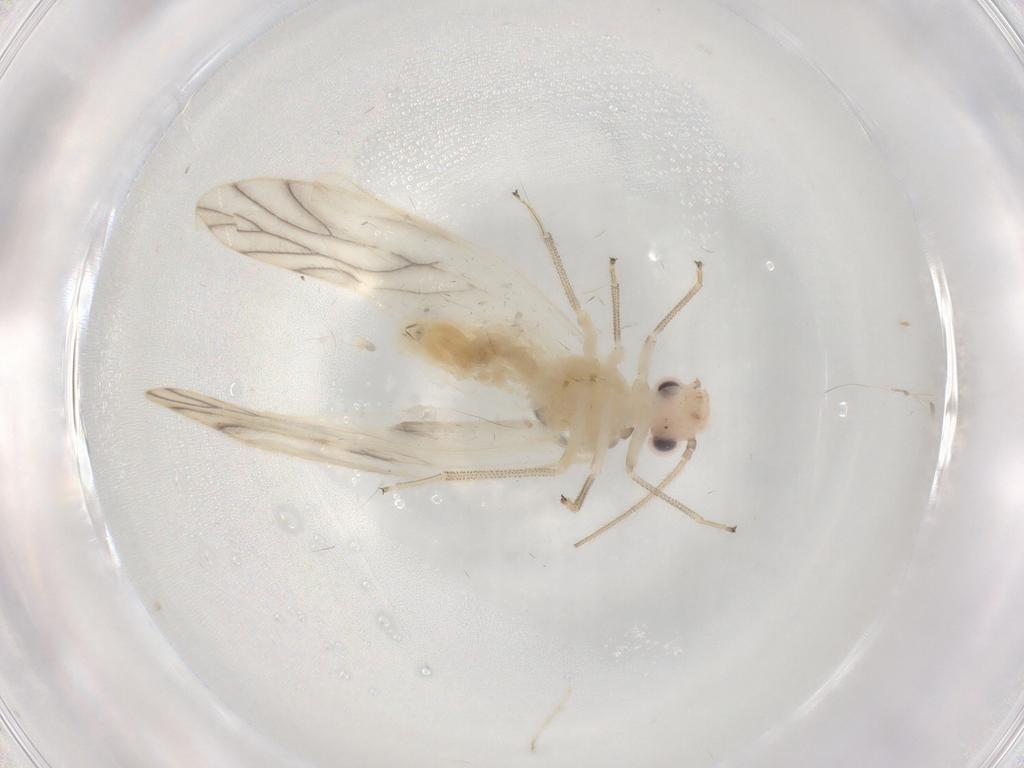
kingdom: Animalia
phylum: Arthropoda
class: Insecta
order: Psocodea
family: Caeciliusidae
